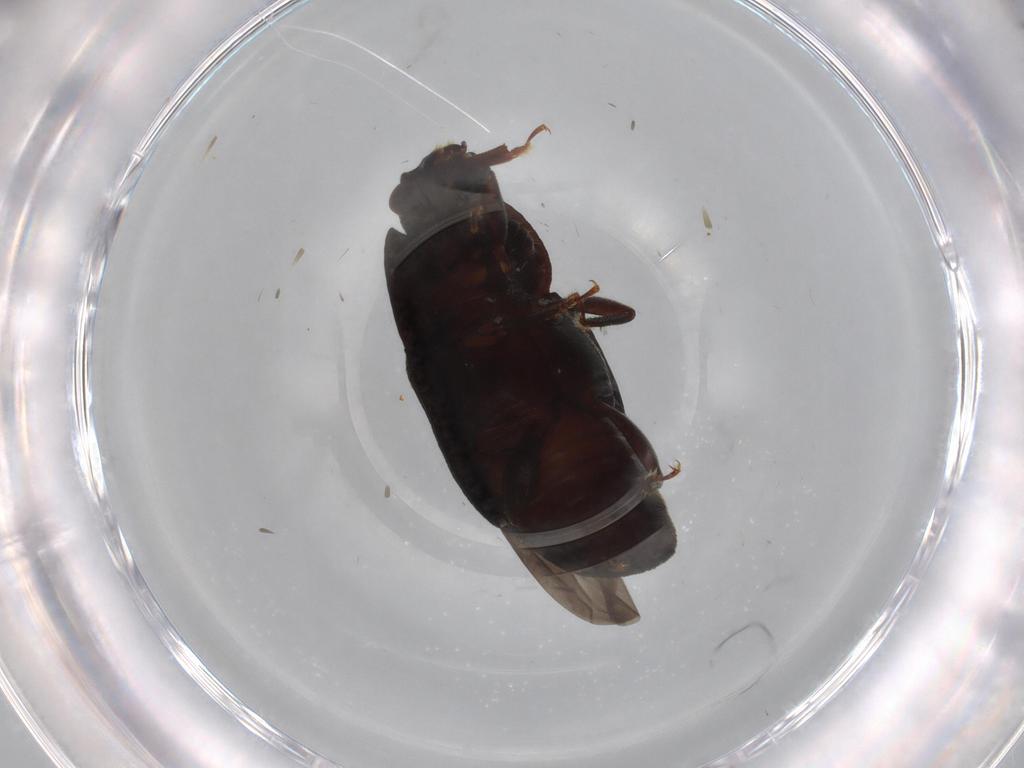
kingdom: Animalia
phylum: Arthropoda
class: Insecta
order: Coleoptera
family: Nitidulidae
